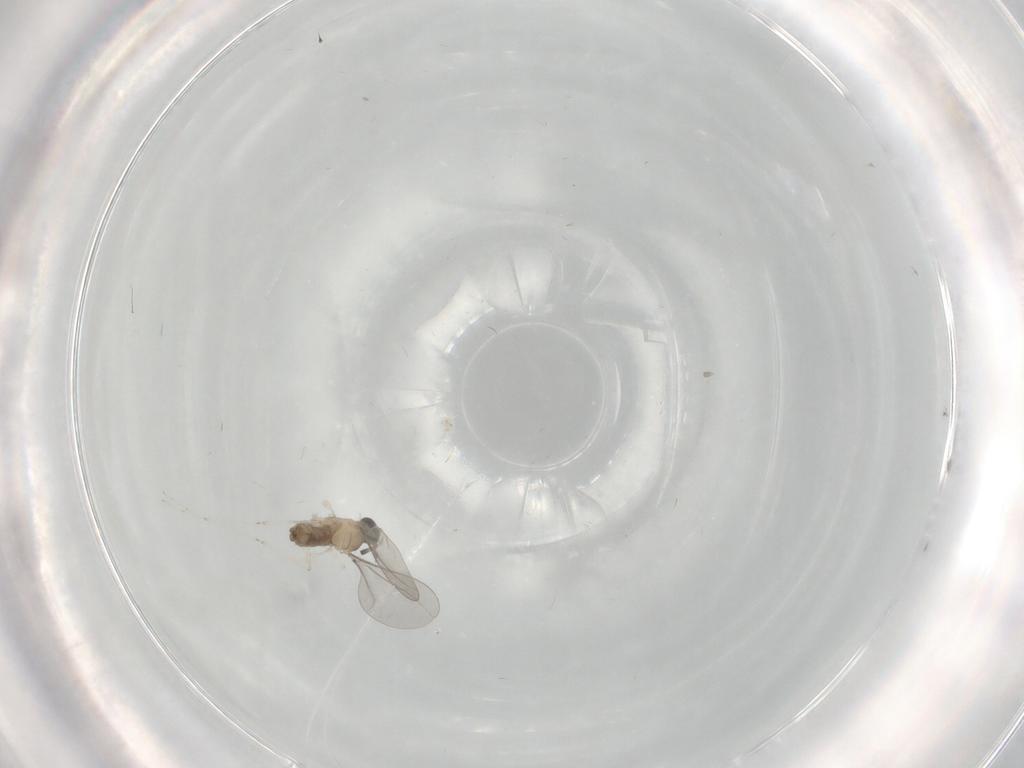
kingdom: Animalia
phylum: Arthropoda
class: Insecta
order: Diptera
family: Cecidomyiidae
